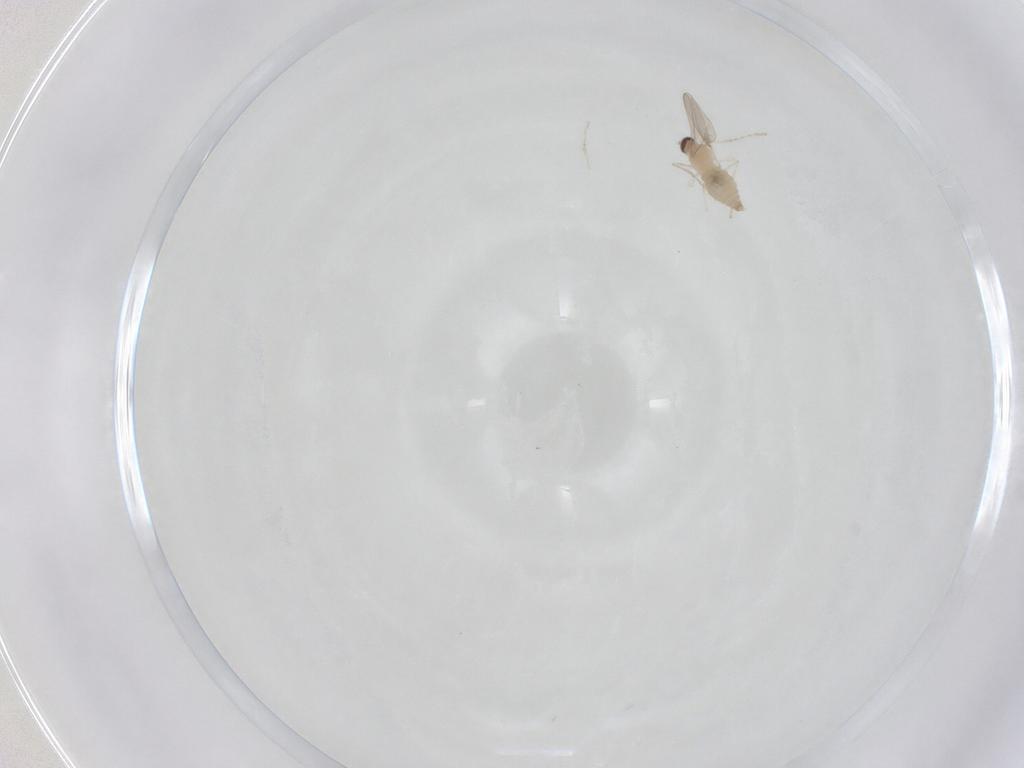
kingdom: Animalia
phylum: Arthropoda
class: Insecta
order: Diptera
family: Cecidomyiidae
